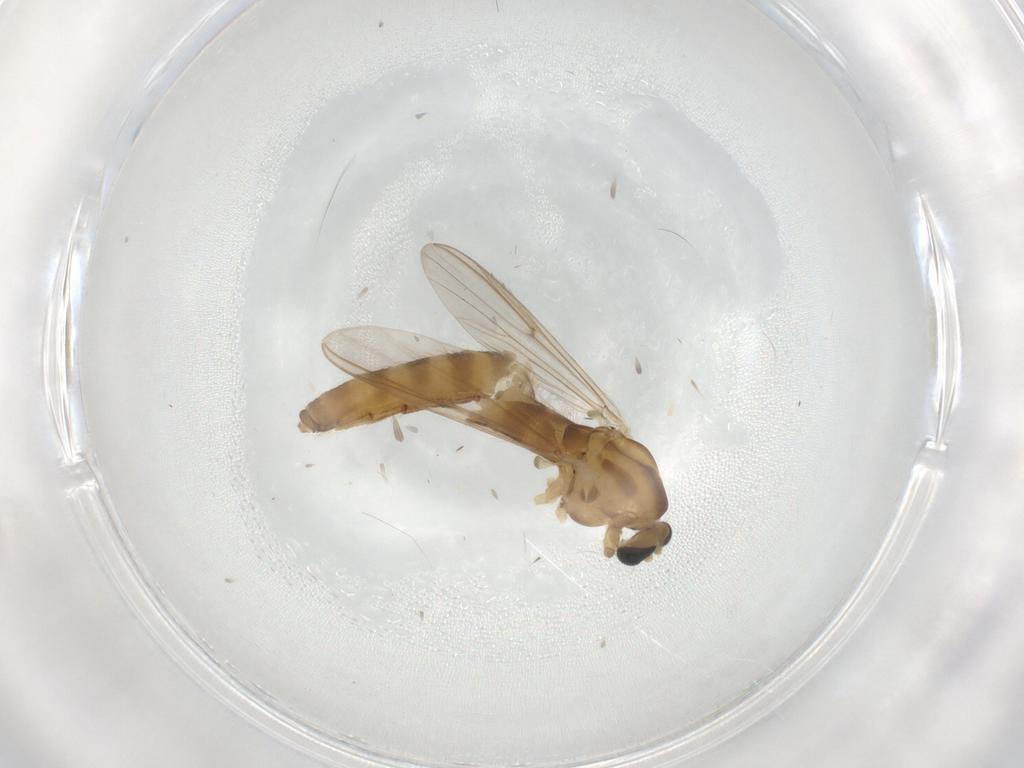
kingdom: Animalia
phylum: Arthropoda
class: Insecta
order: Diptera
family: Chironomidae
